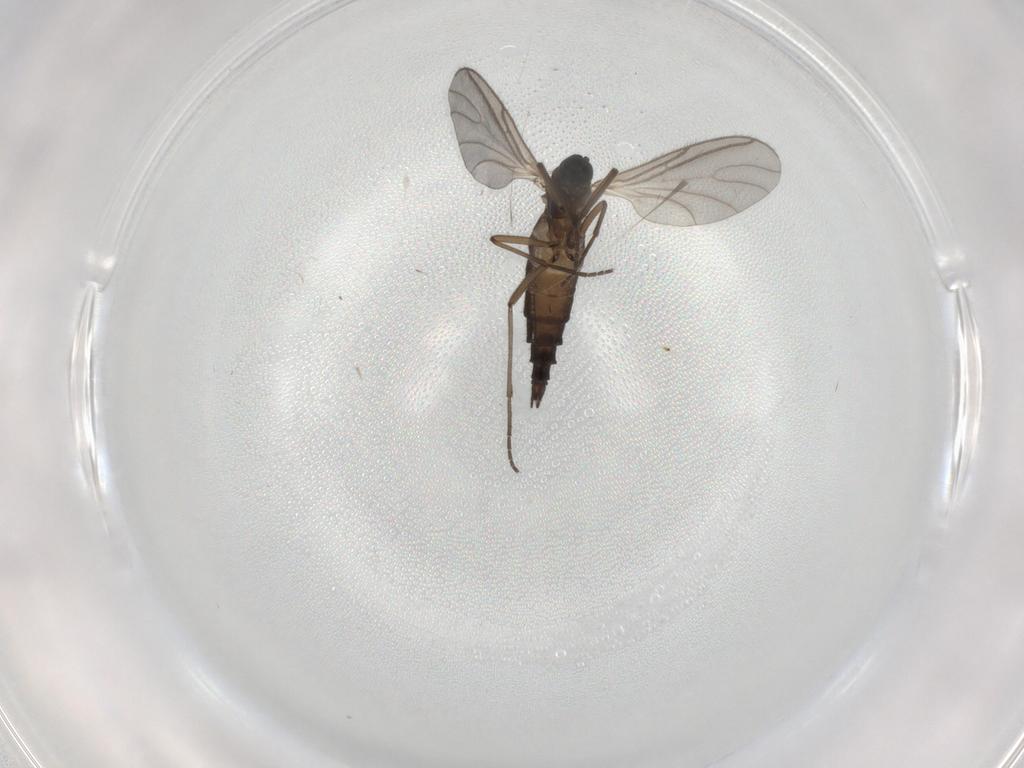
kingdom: Animalia
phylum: Arthropoda
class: Insecta
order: Diptera
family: Sciaridae
